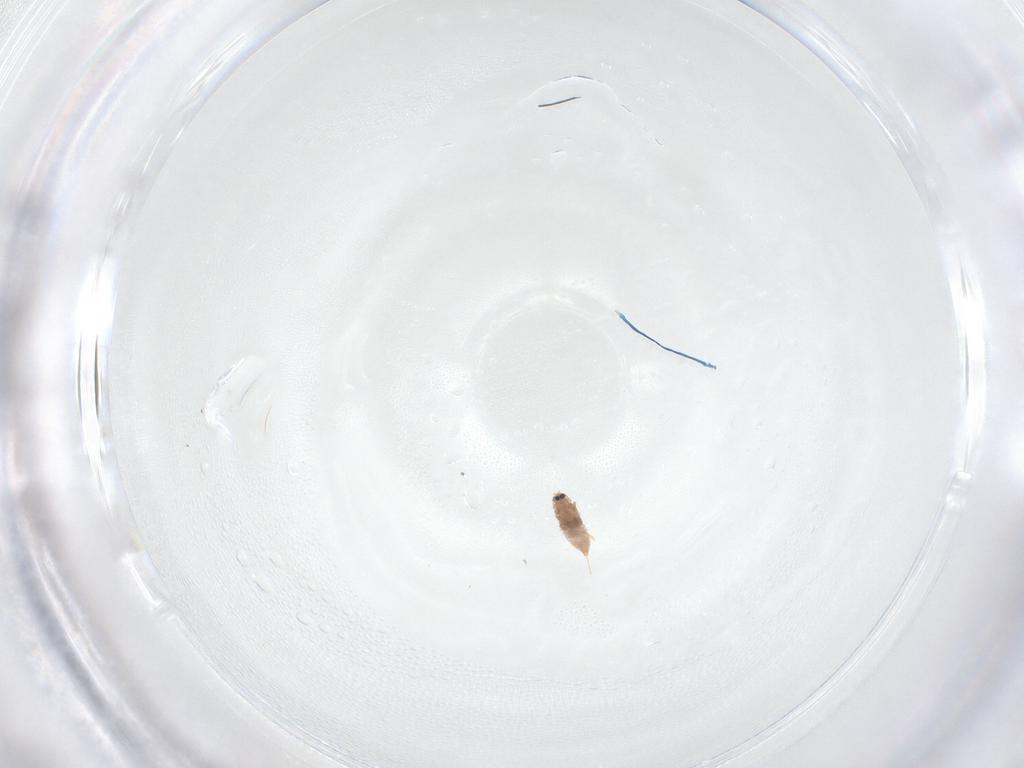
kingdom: Animalia
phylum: Arthropoda
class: Insecta
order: Hemiptera
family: Diaspididae
